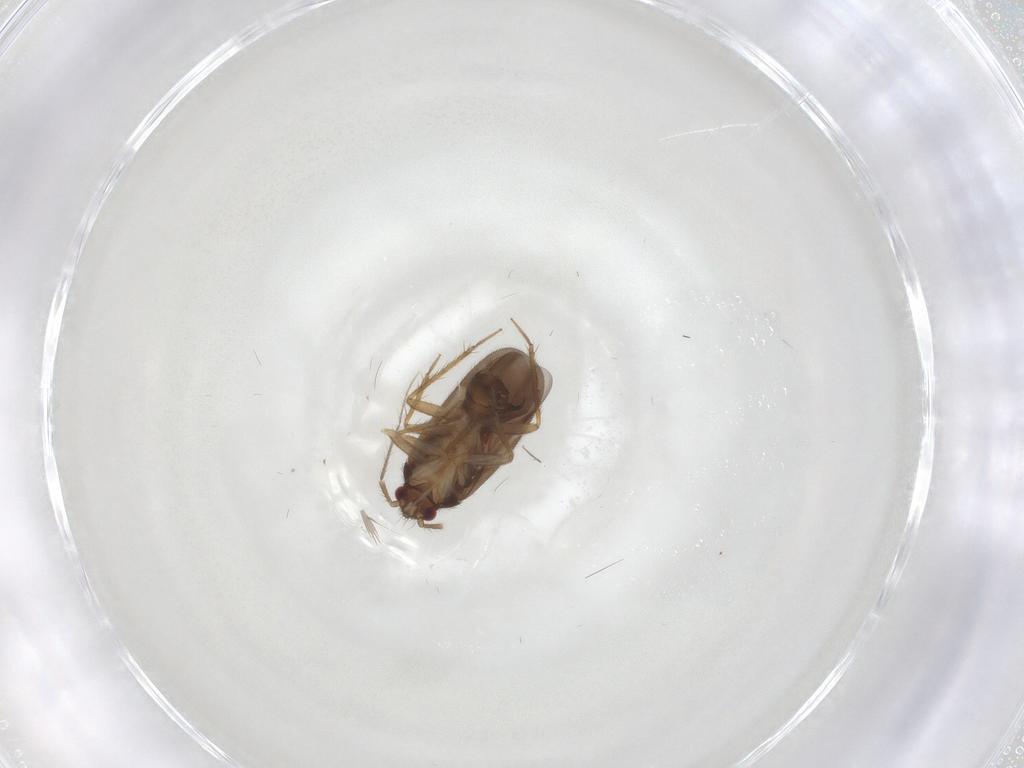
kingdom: Animalia
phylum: Arthropoda
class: Insecta
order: Hemiptera
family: Ceratocombidae
